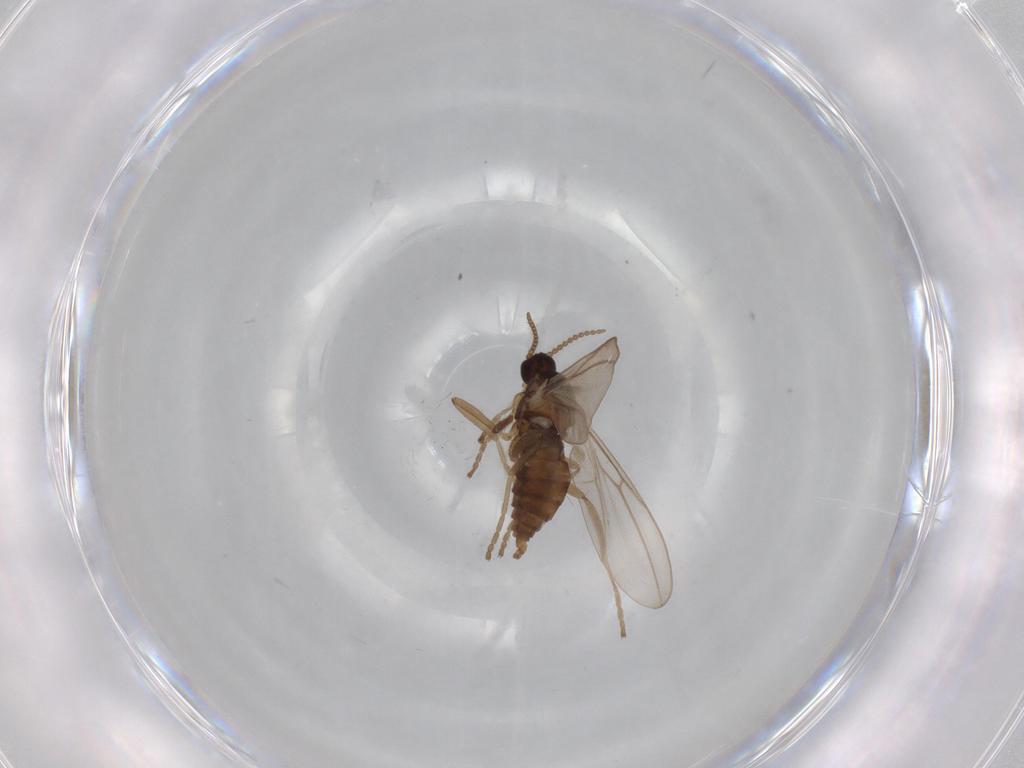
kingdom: Animalia
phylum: Arthropoda
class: Insecta
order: Diptera
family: Cecidomyiidae
